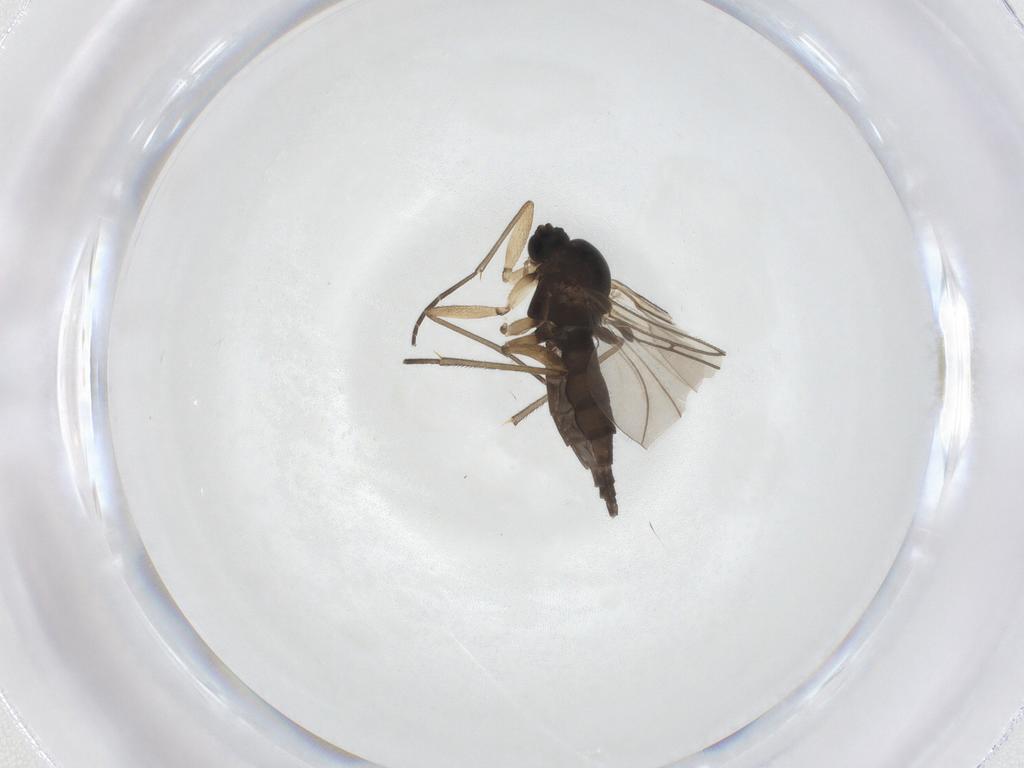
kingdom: Animalia
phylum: Arthropoda
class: Insecta
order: Diptera
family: Sciaridae
